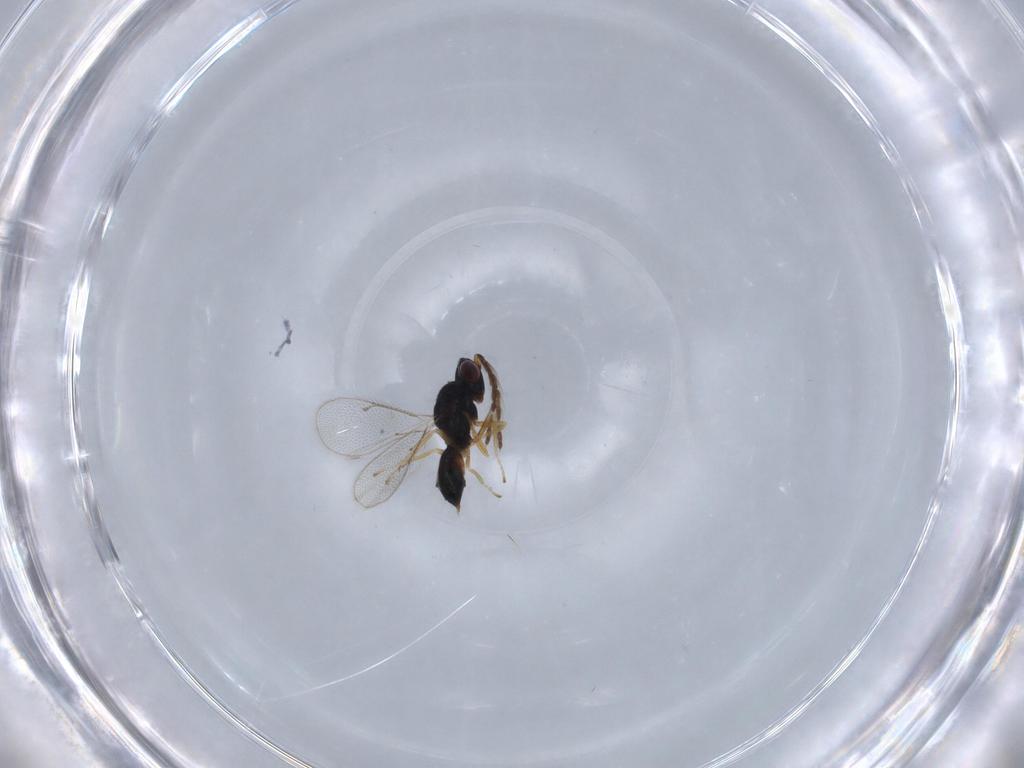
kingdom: Animalia
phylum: Arthropoda
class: Insecta
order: Hymenoptera
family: Eulophidae
